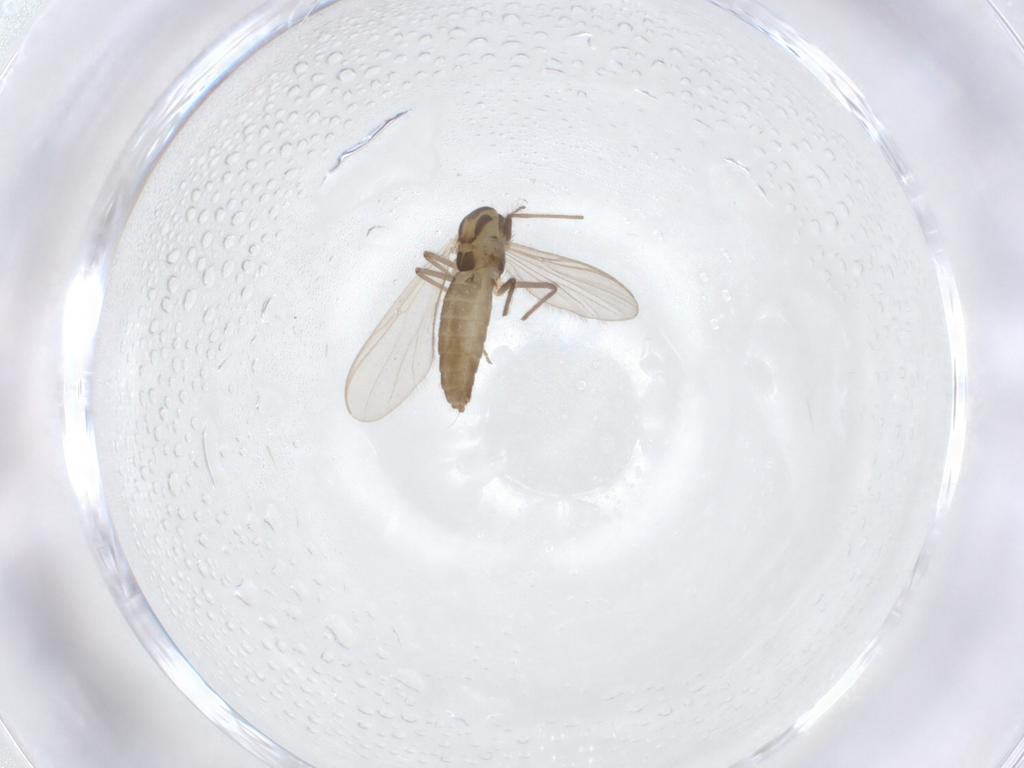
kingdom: Animalia
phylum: Arthropoda
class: Insecta
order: Diptera
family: Chironomidae
